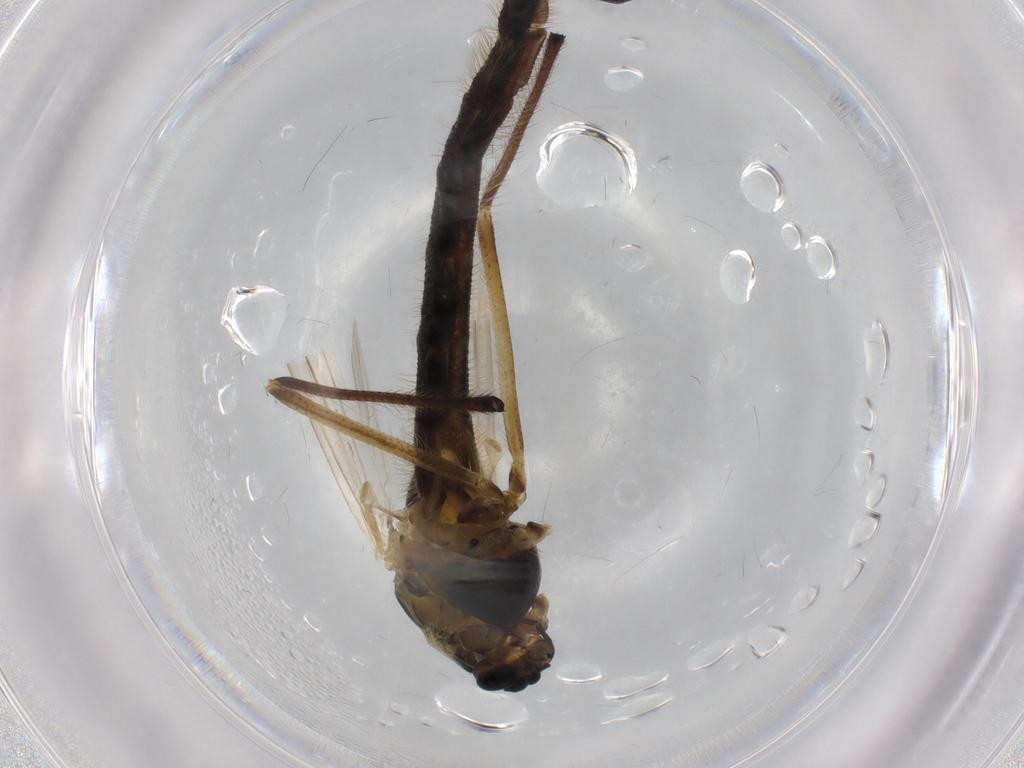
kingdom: Animalia
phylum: Arthropoda
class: Insecta
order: Diptera
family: Chironomidae
